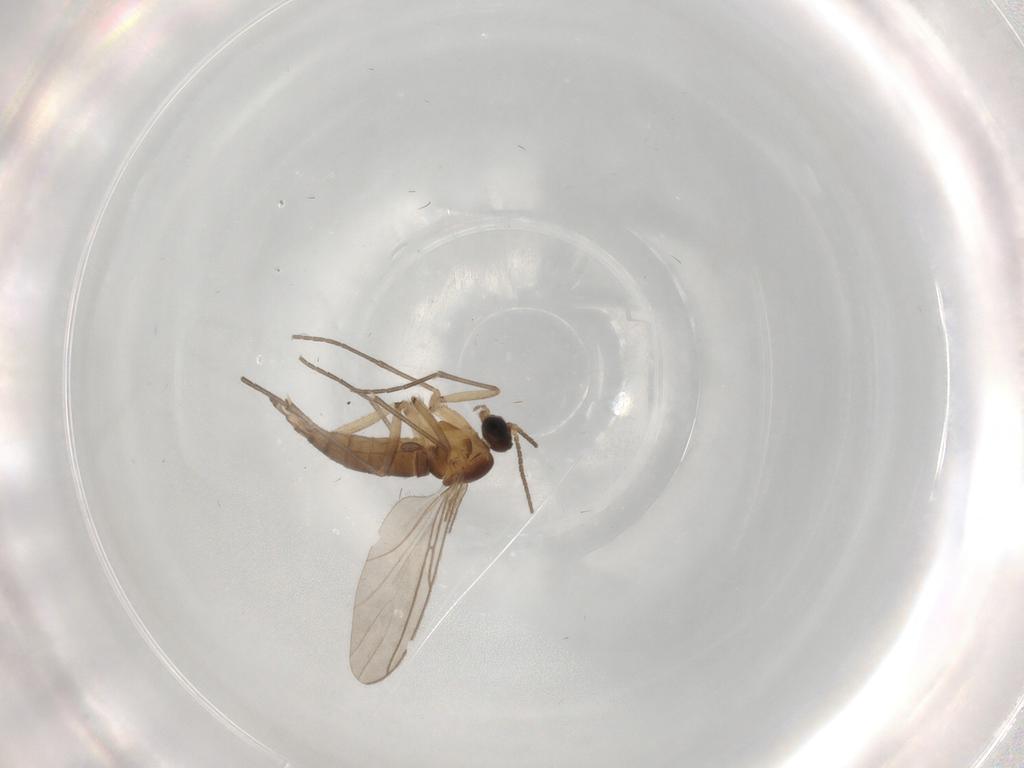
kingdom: Animalia
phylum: Arthropoda
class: Insecta
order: Diptera
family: Sciaridae
